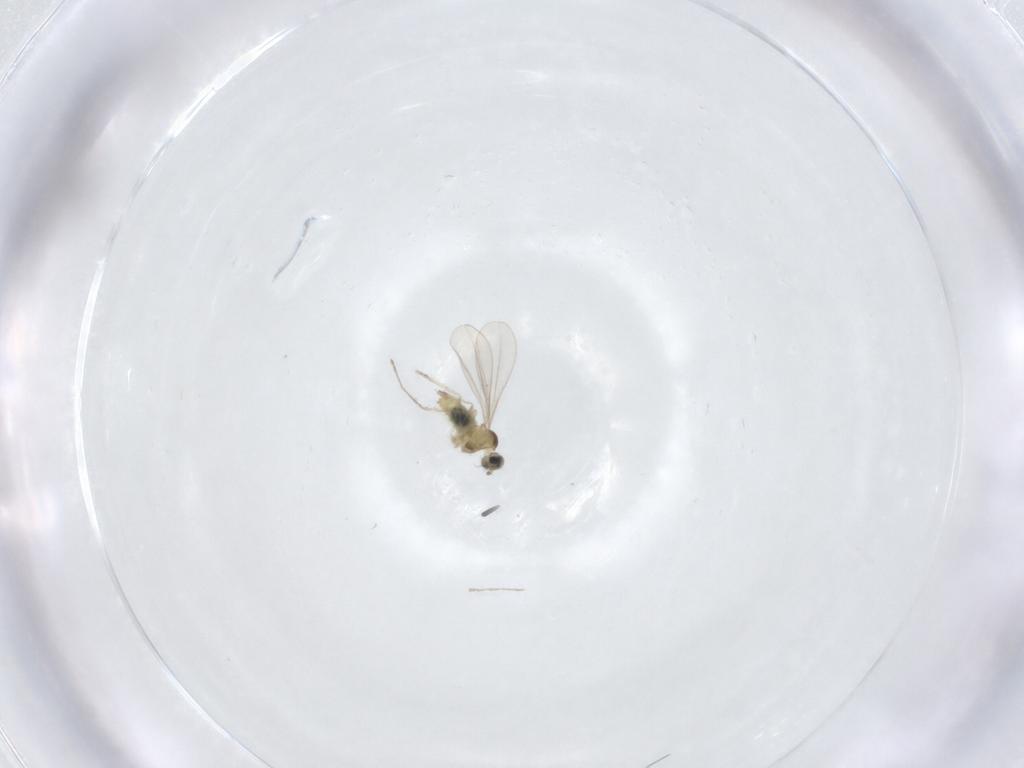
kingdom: Animalia
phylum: Arthropoda
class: Insecta
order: Diptera
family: Cecidomyiidae
